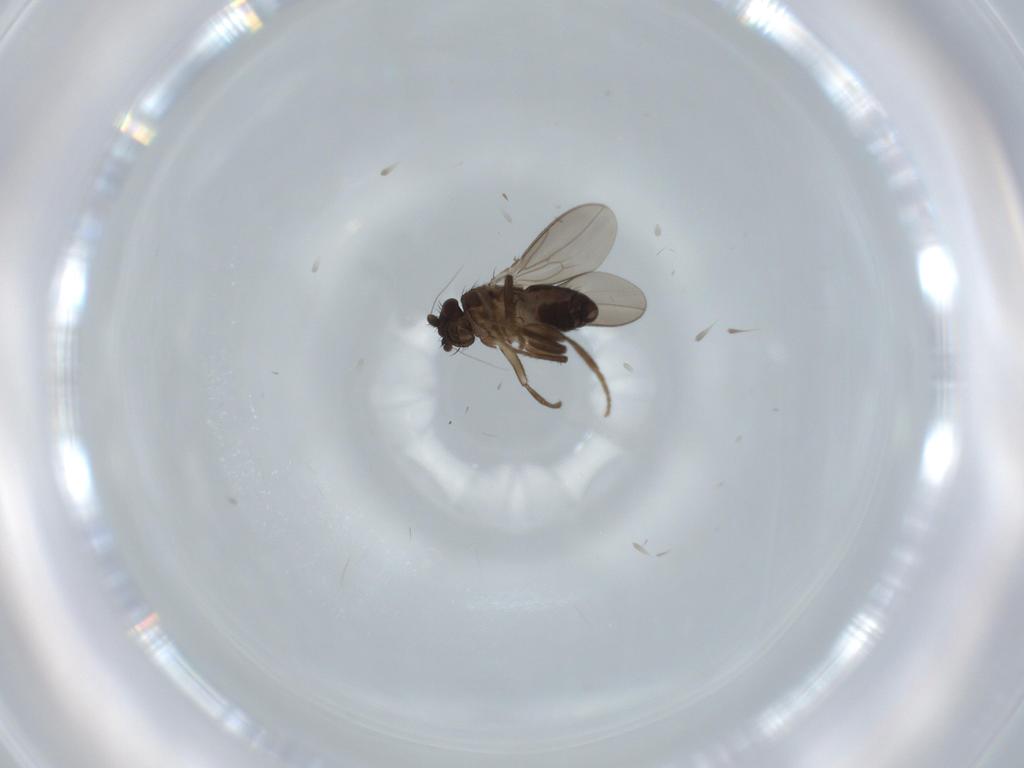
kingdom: Animalia
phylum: Arthropoda
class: Insecta
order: Diptera
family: Sphaeroceridae
